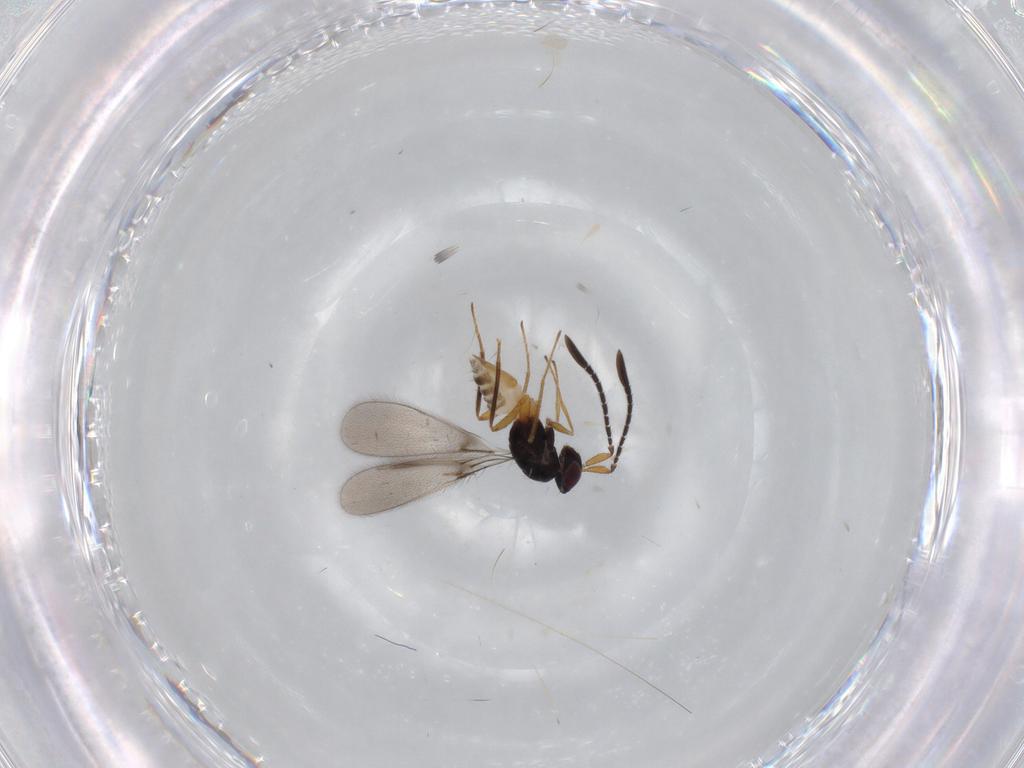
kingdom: Animalia
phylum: Arthropoda
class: Insecta
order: Hymenoptera
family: Mymaridae
